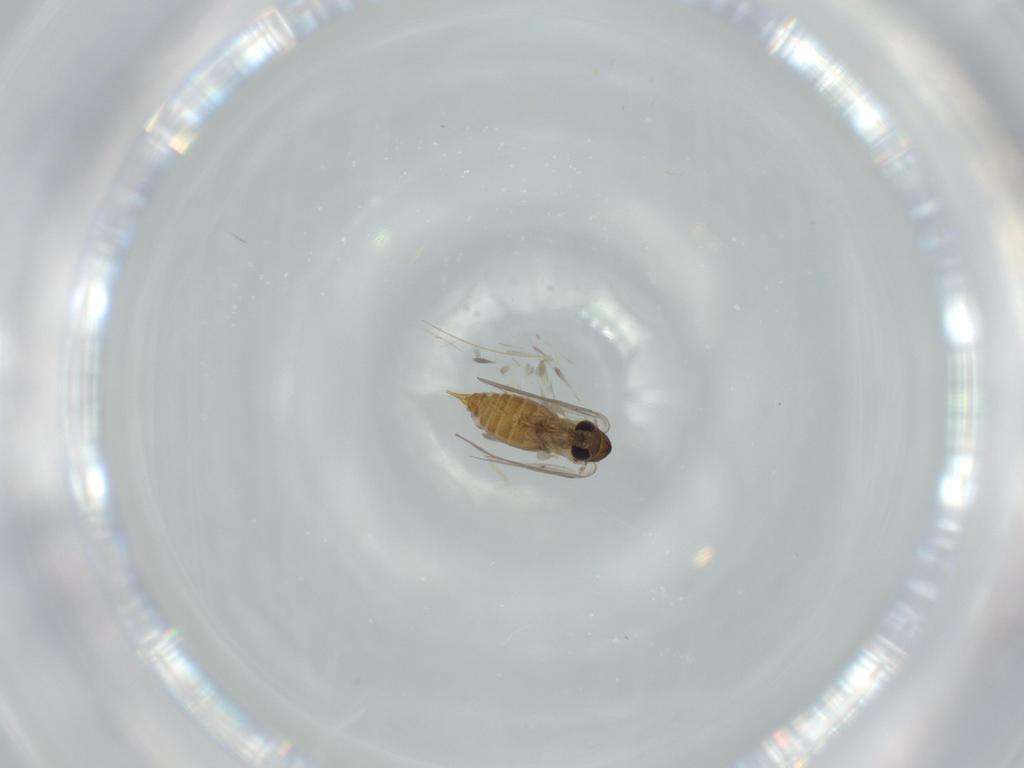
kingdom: Animalia
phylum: Arthropoda
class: Insecta
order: Diptera
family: Psychodidae
